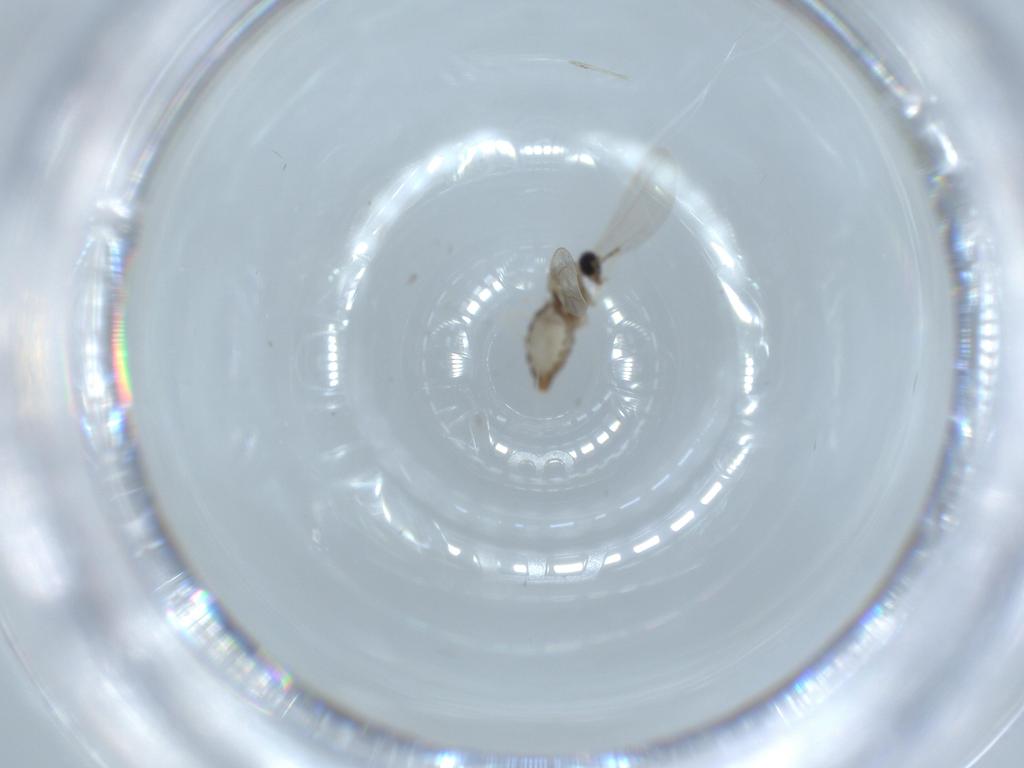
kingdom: Animalia
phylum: Arthropoda
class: Insecta
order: Diptera
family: Cecidomyiidae
